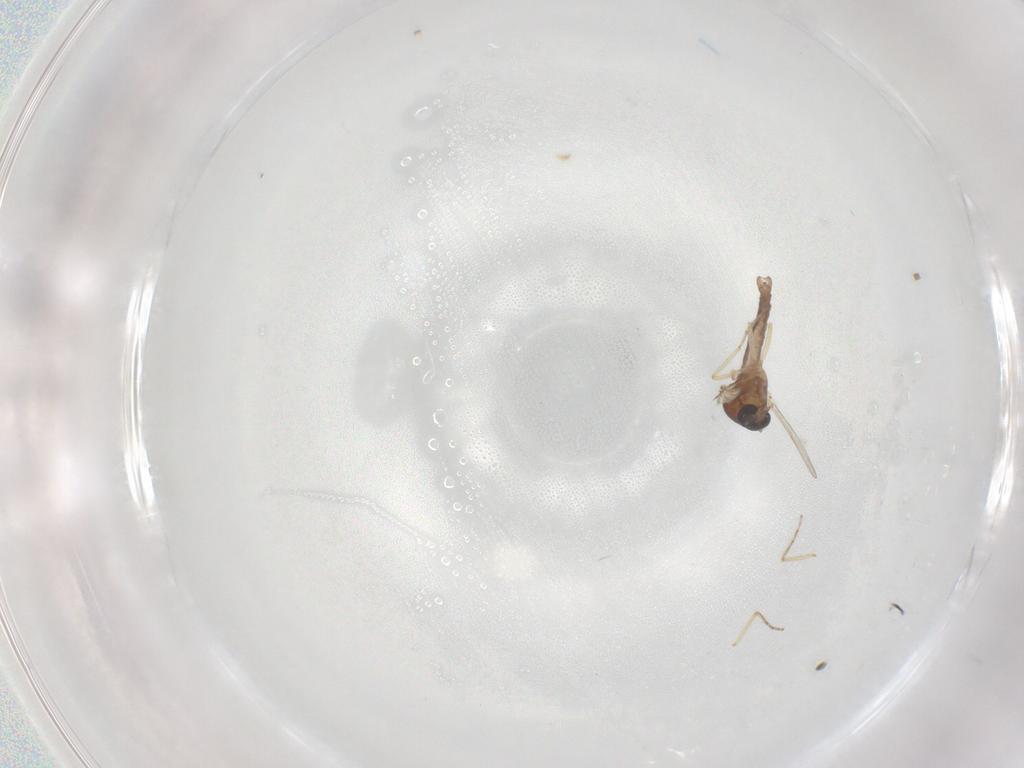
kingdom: Animalia
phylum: Arthropoda
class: Insecta
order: Diptera
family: Ceratopogonidae
